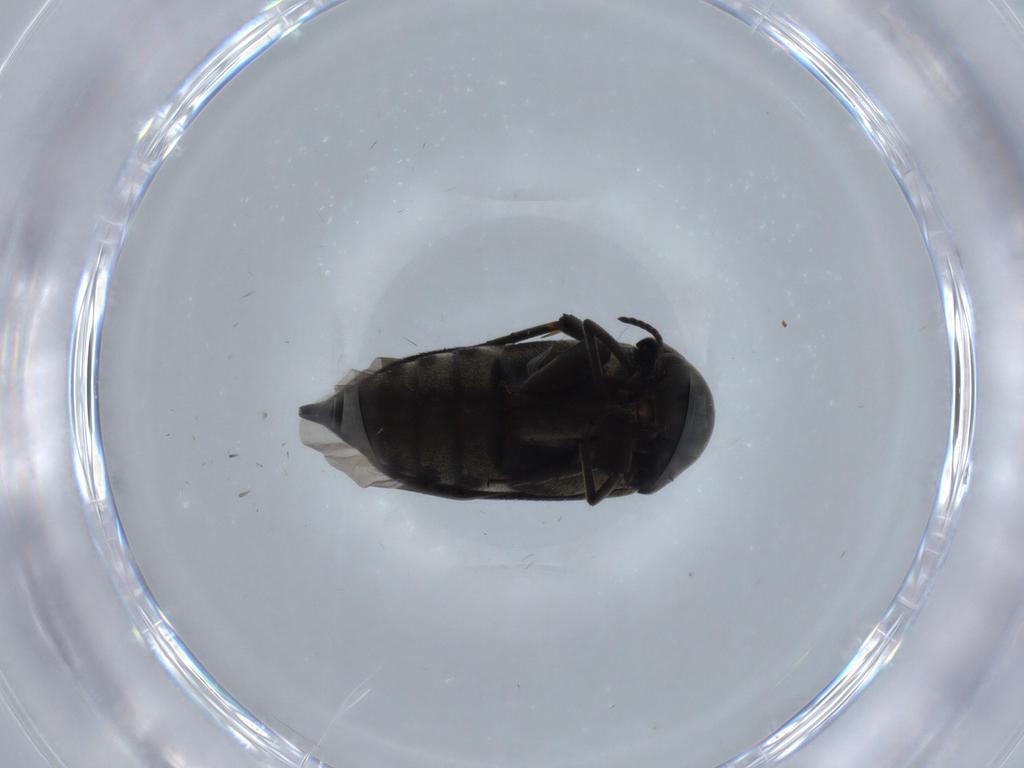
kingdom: Animalia
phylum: Arthropoda
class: Insecta
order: Coleoptera
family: Mordellidae
